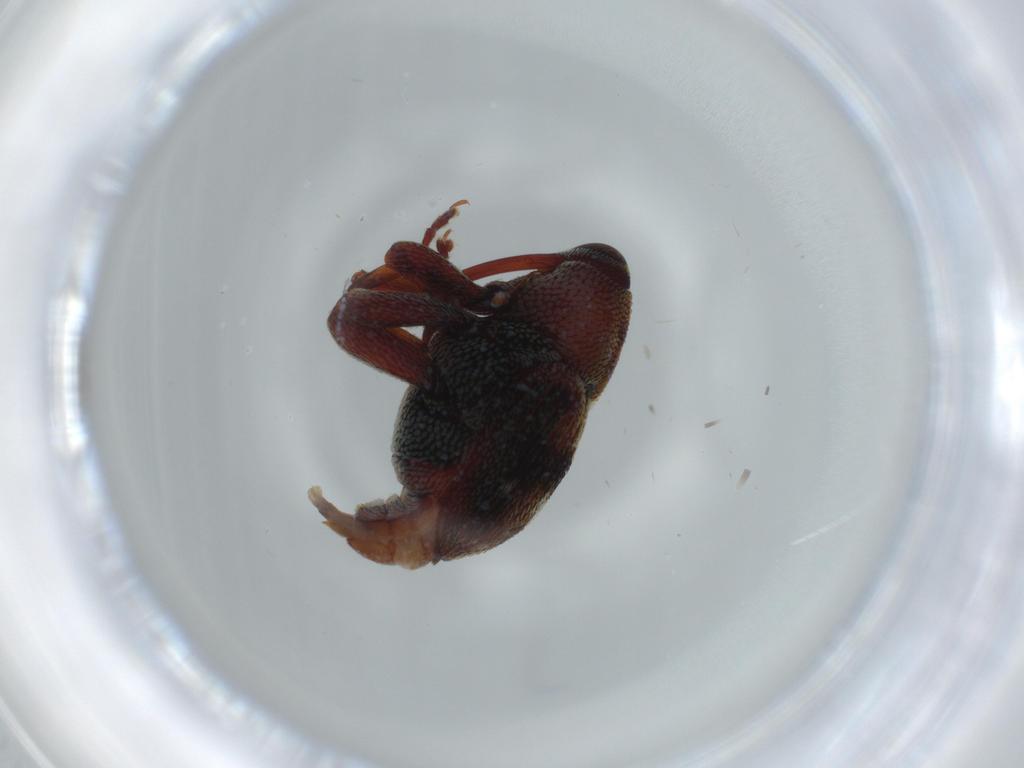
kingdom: Animalia
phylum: Arthropoda
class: Insecta
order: Coleoptera
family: Curculionidae
